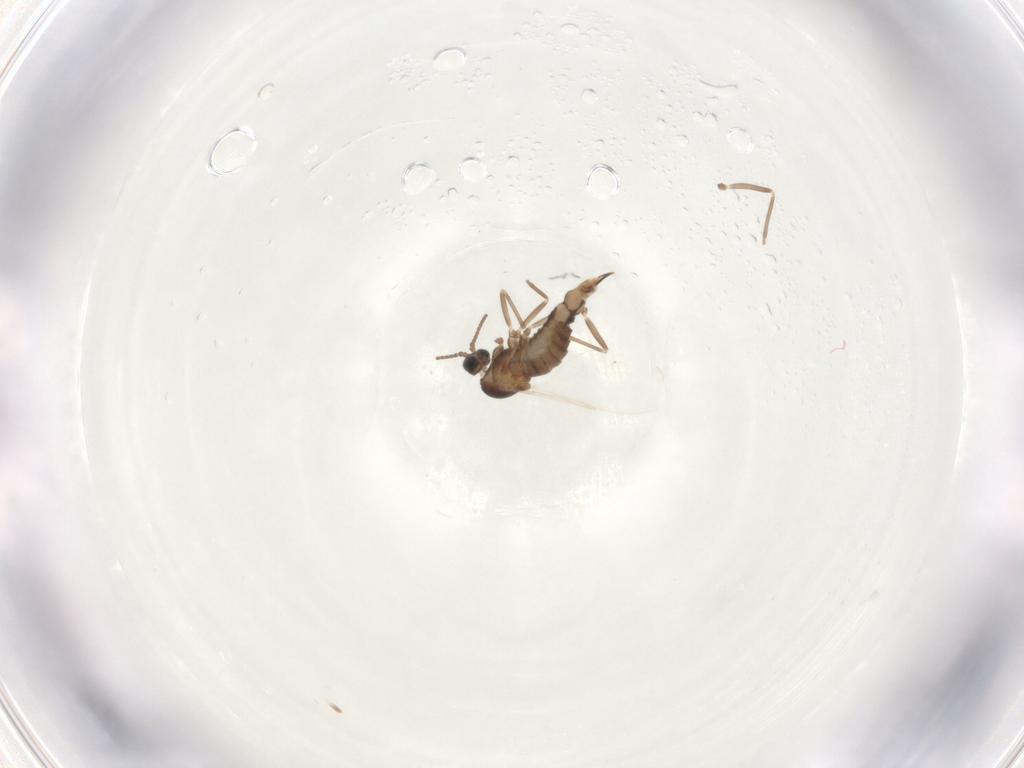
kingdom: Animalia
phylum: Arthropoda
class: Insecta
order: Diptera
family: Cecidomyiidae
